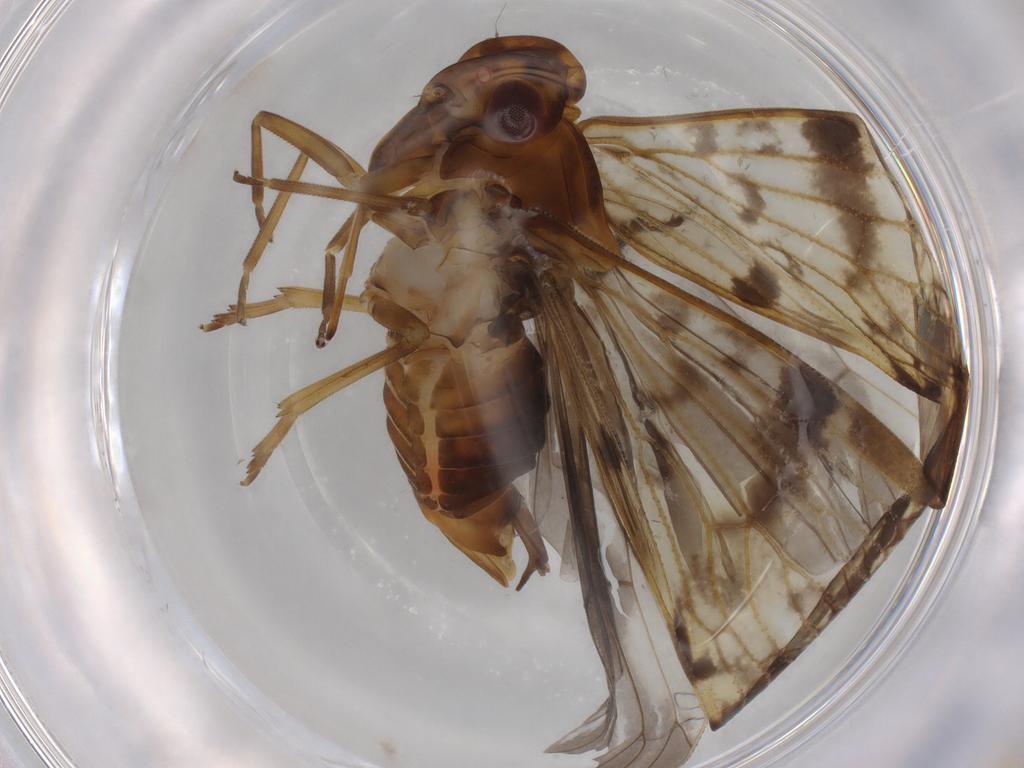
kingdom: Animalia
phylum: Arthropoda
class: Insecta
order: Hemiptera
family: Cixiidae
